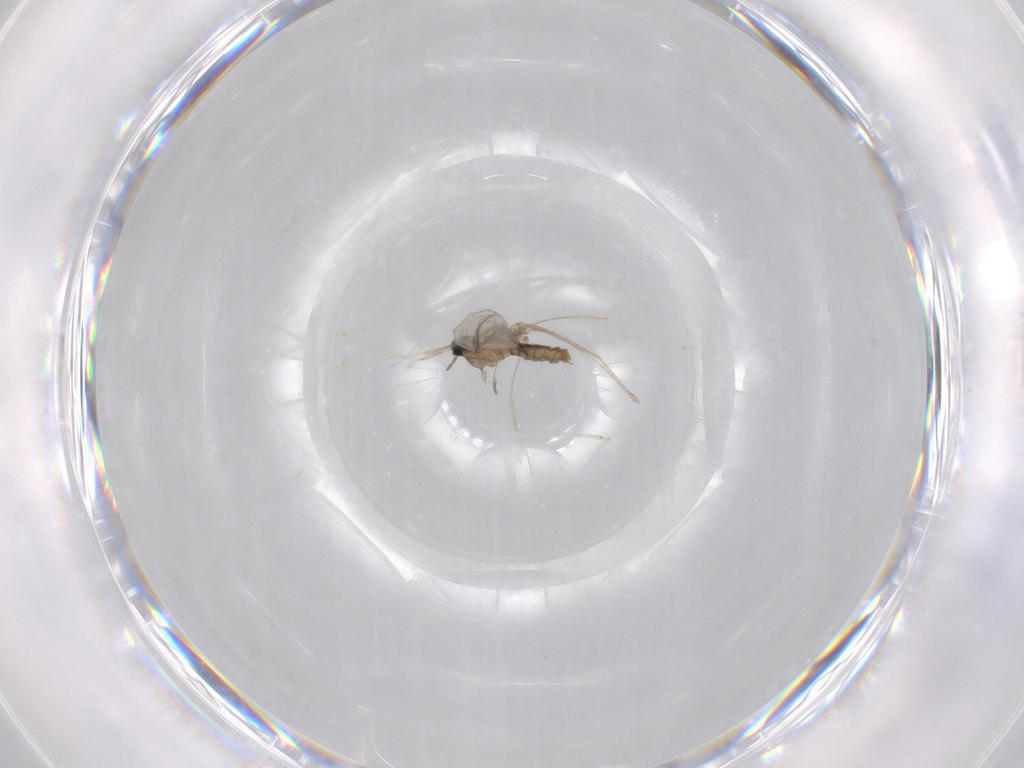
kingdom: Animalia
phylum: Arthropoda
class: Insecta
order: Diptera
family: Cecidomyiidae
